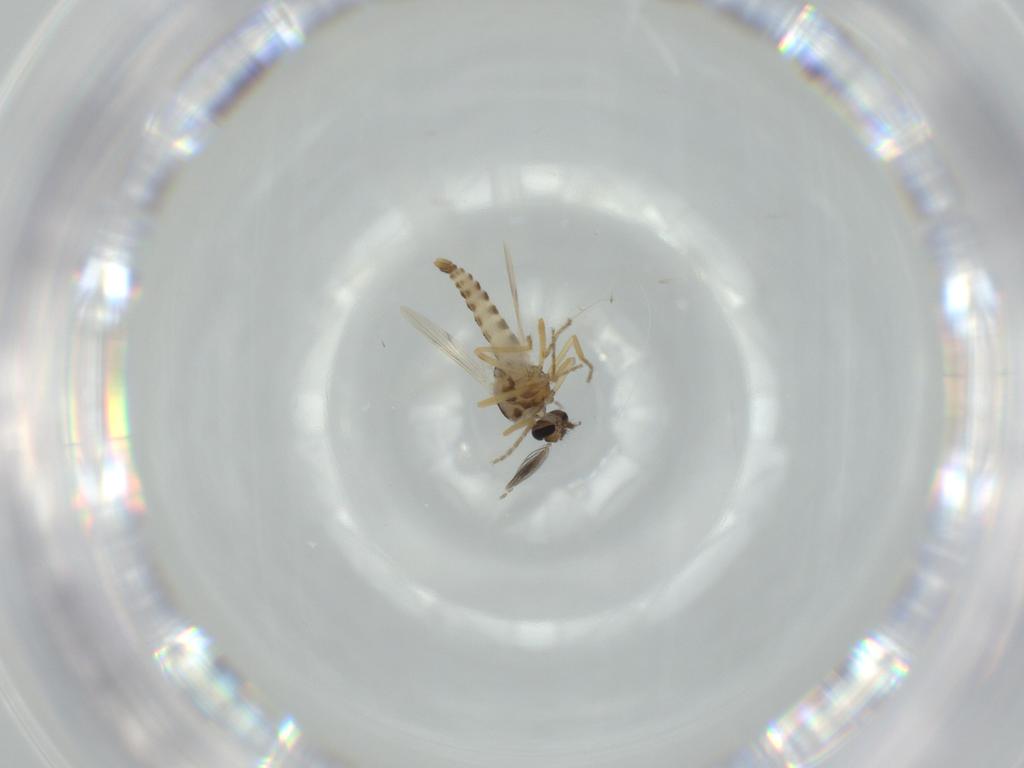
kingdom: Animalia
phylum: Arthropoda
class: Insecta
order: Diptera
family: Ceratopogonidae
